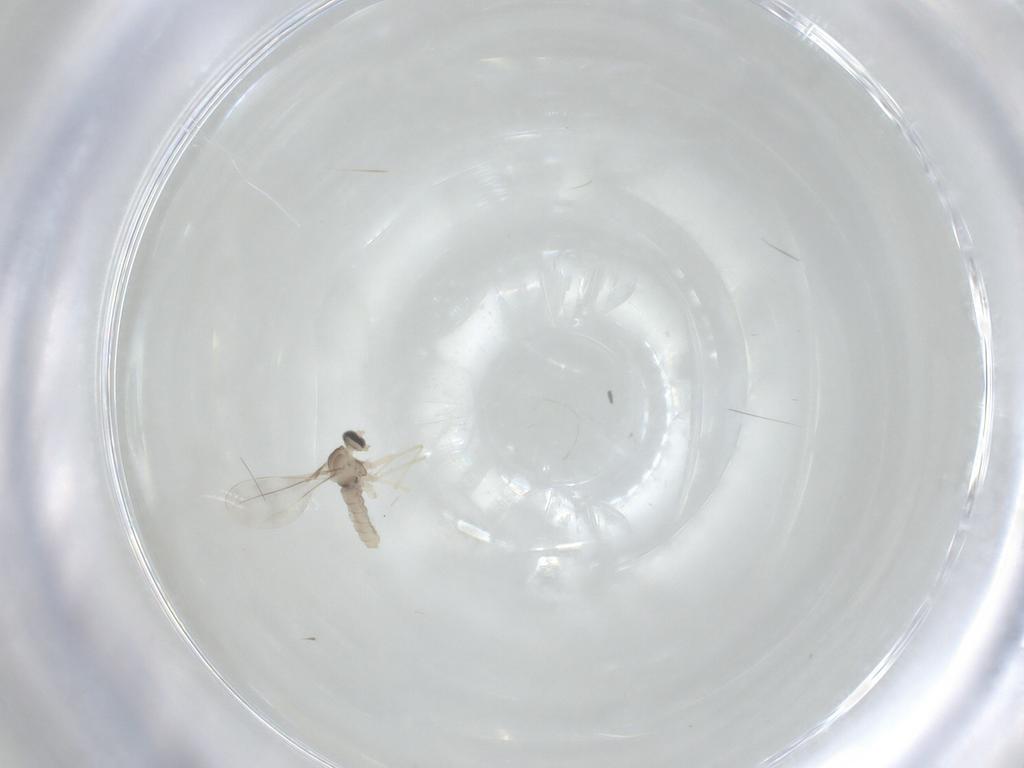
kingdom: Animalia
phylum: Arthropoda
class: Insecta
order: Diptera
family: Cecidomyiidae
